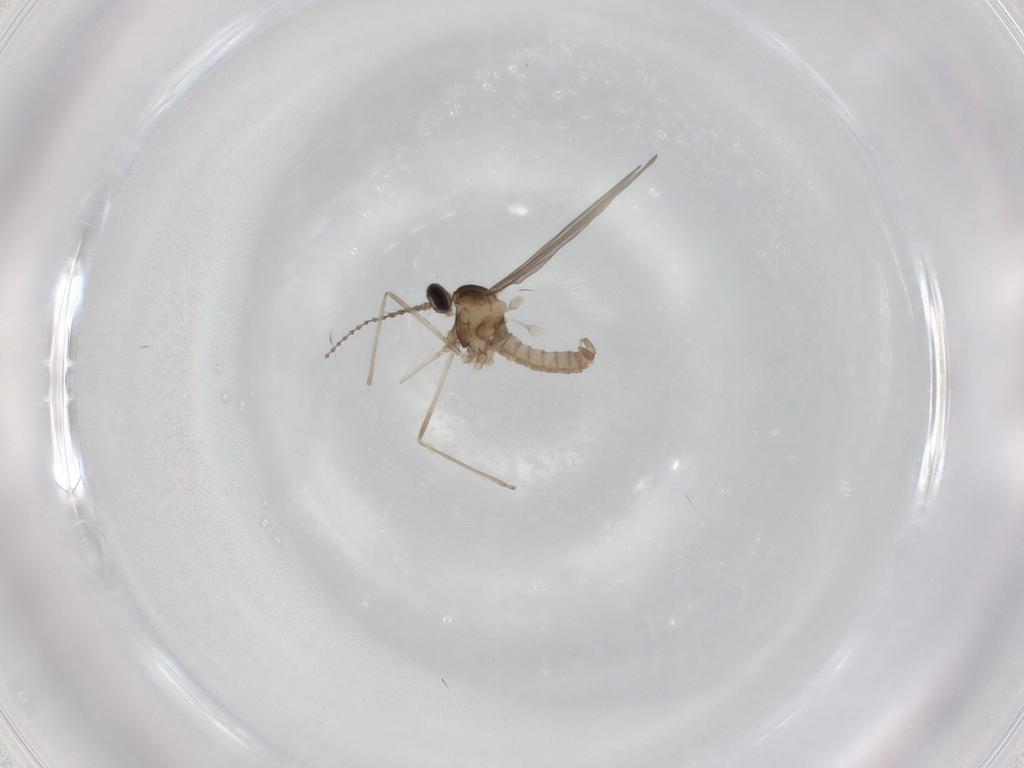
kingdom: Animalia
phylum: Arthropoda
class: Insecta
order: Diptera
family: Cecidomyiidae
